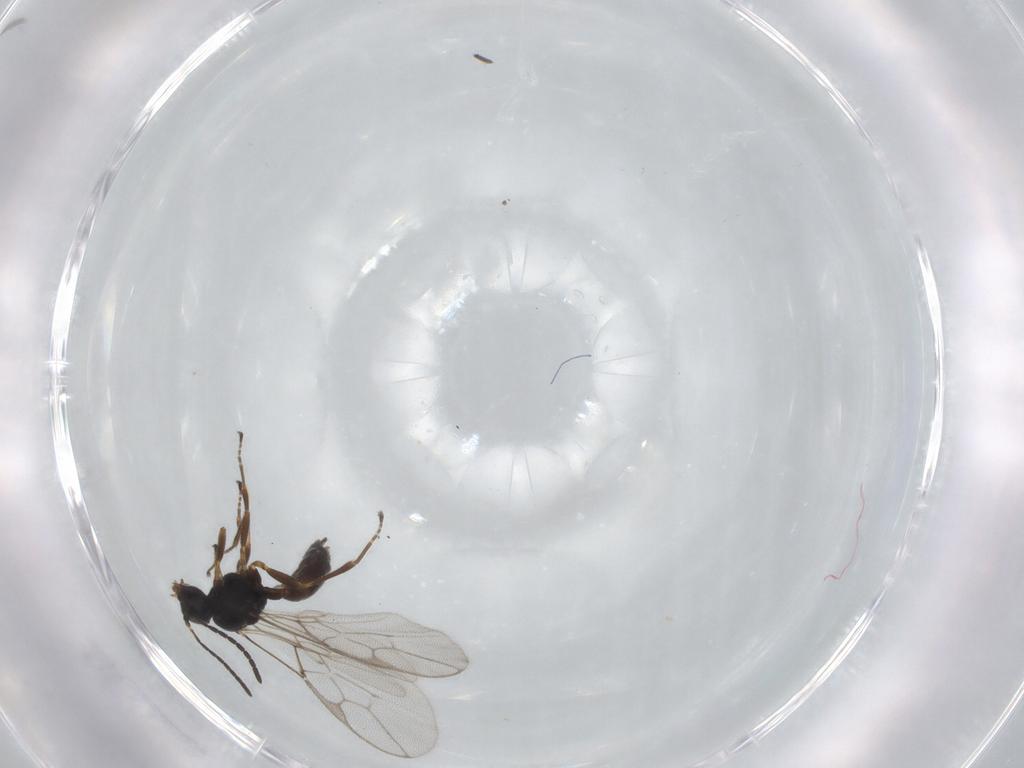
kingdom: Animalia
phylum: Arthropoda
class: Insecta
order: Hymenoptera
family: Braconidae
